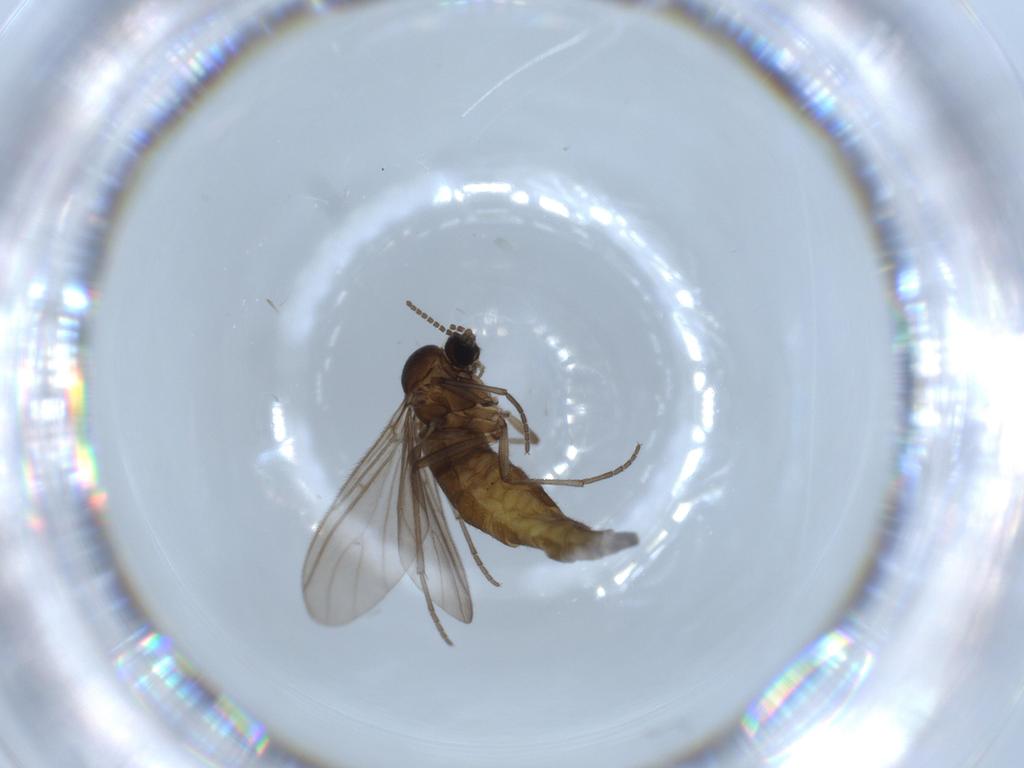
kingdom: Animalia
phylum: Arthropoda
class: Insecta
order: Diptera
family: Sciaridae
